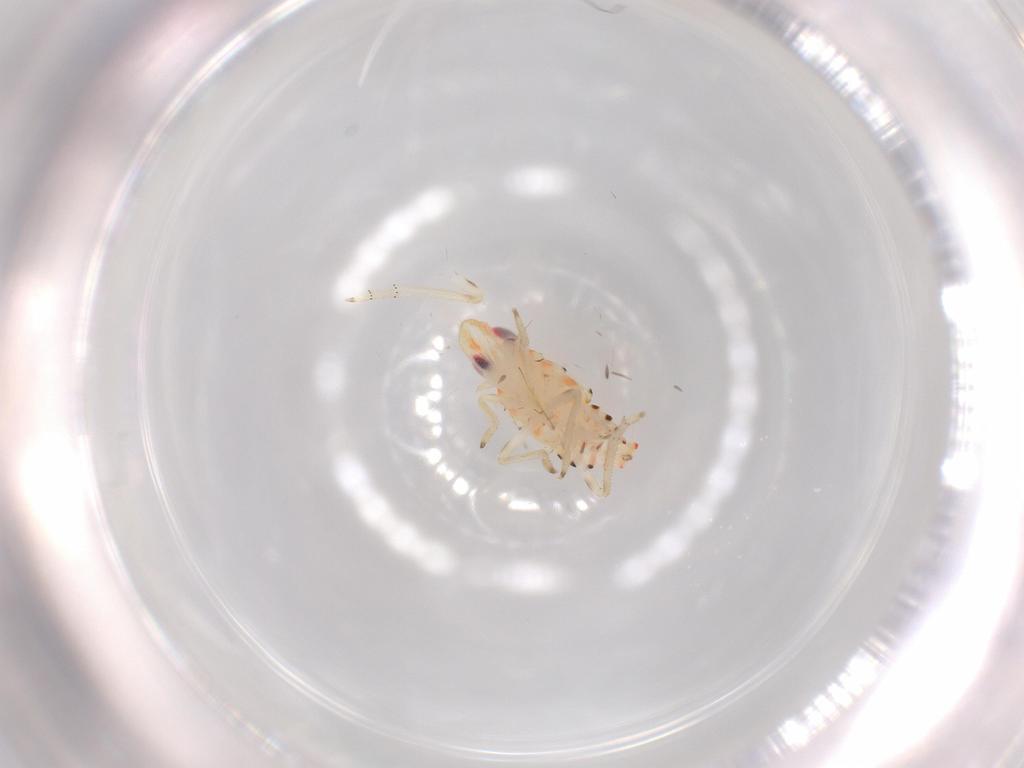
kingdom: Animalia
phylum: Arthropoda
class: Insecta
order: Hemiptera
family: Tropiduchidae
